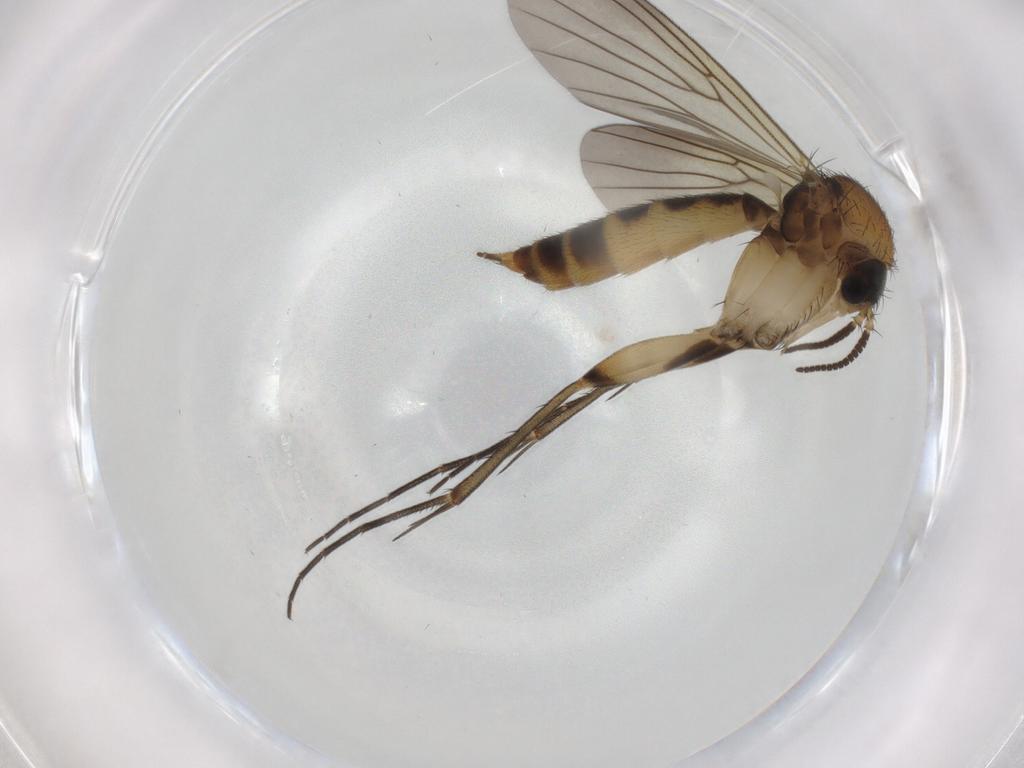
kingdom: Animalia
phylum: Arthropoda
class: Insecta
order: Diptera
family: Mycetophilidae
